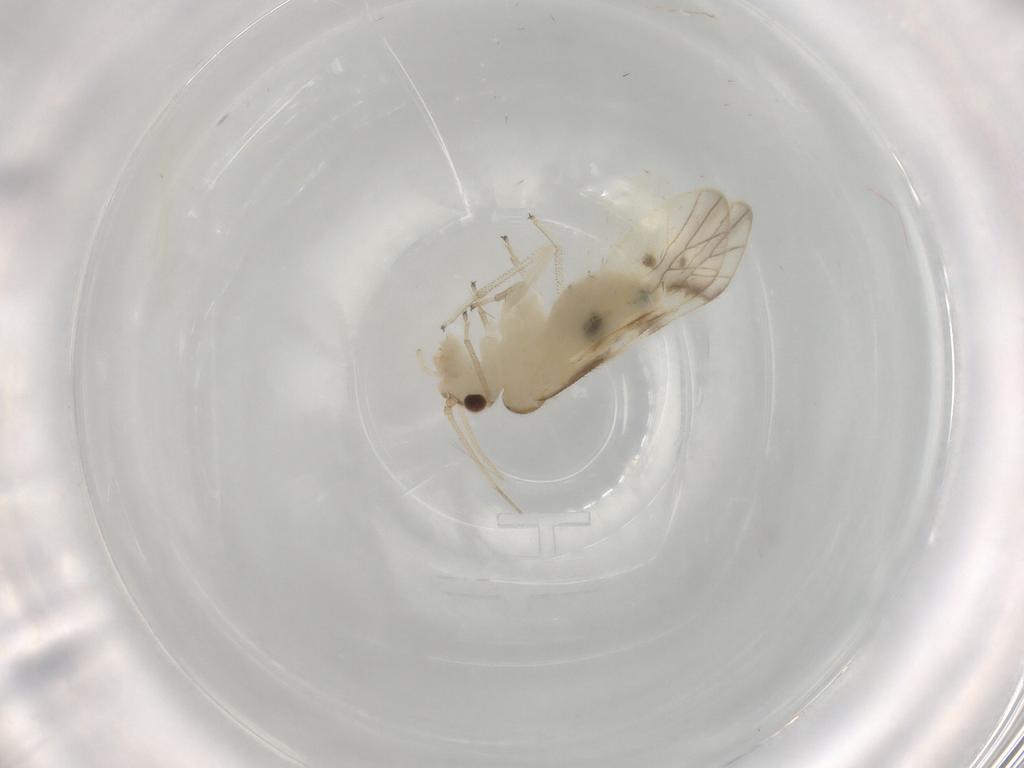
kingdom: Animalia
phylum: Arthropoda
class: Insecta
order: Psocodea
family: Caeciliusidae
